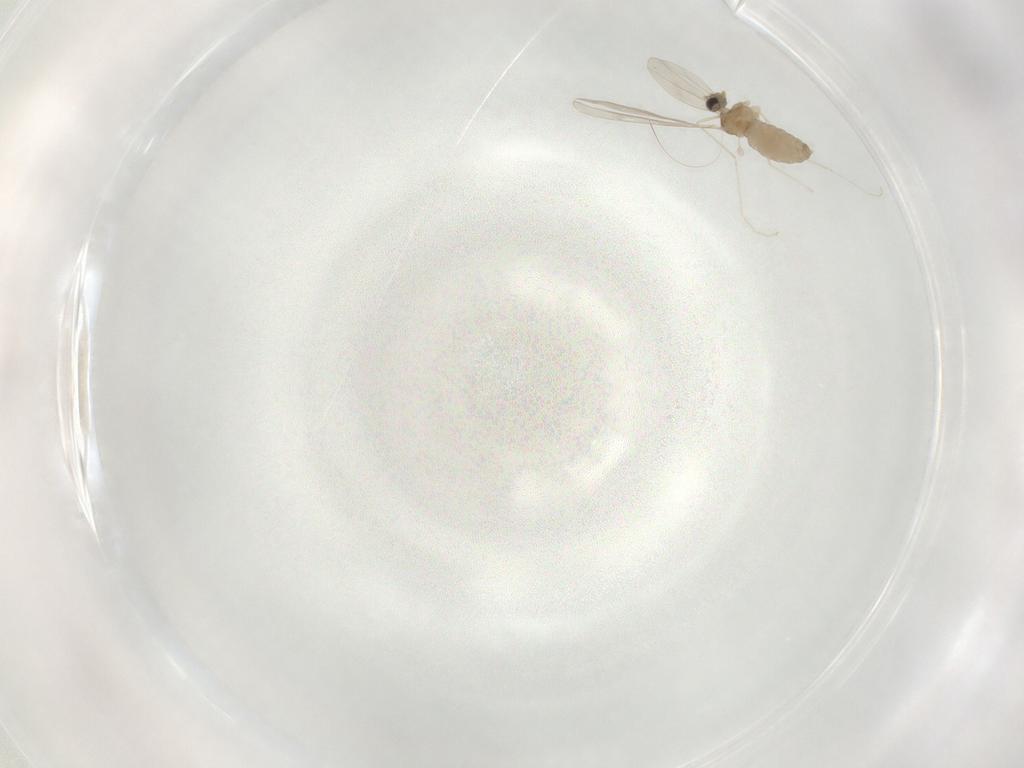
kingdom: Animalia
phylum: Arthropoda
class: Insecta
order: Diptera
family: Cecidomyiidae
